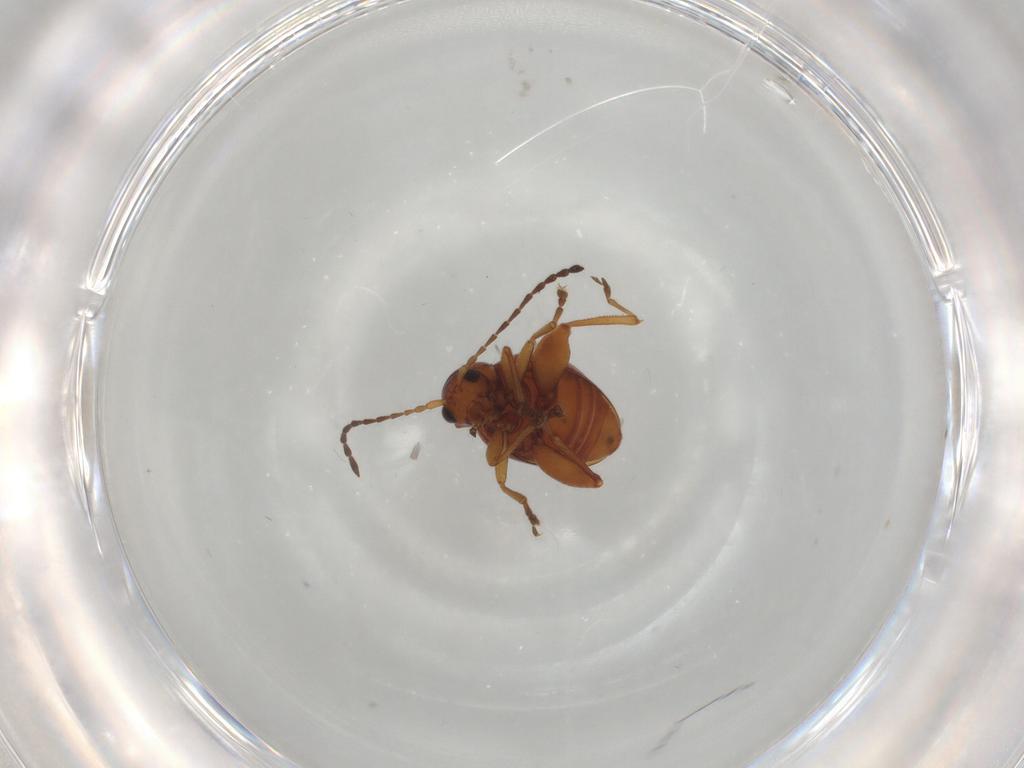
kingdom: Animalia
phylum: Arthropoda
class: Insecta
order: Coleoptera
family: Chrysomelidae
